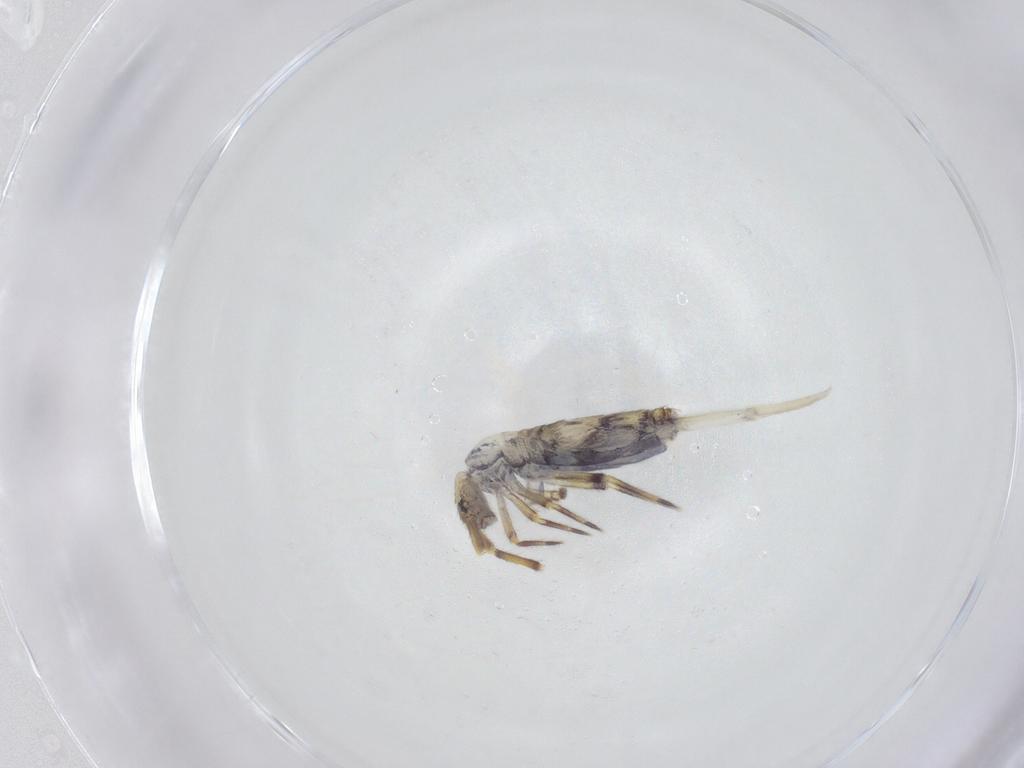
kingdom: Animalia
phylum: Arthropoda
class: Collembola
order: Entomobryomorpha
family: Entomobryidae
